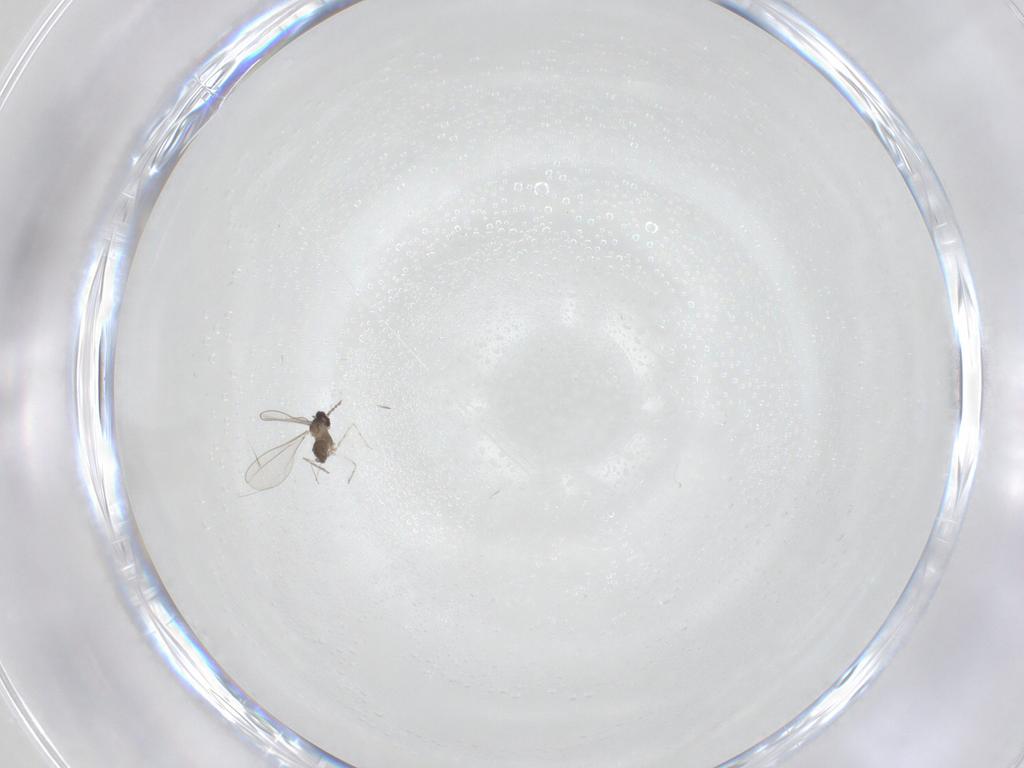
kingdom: Animalia
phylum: Arthropoda
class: Insecta
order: Diptera
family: Cecidomyiidae
